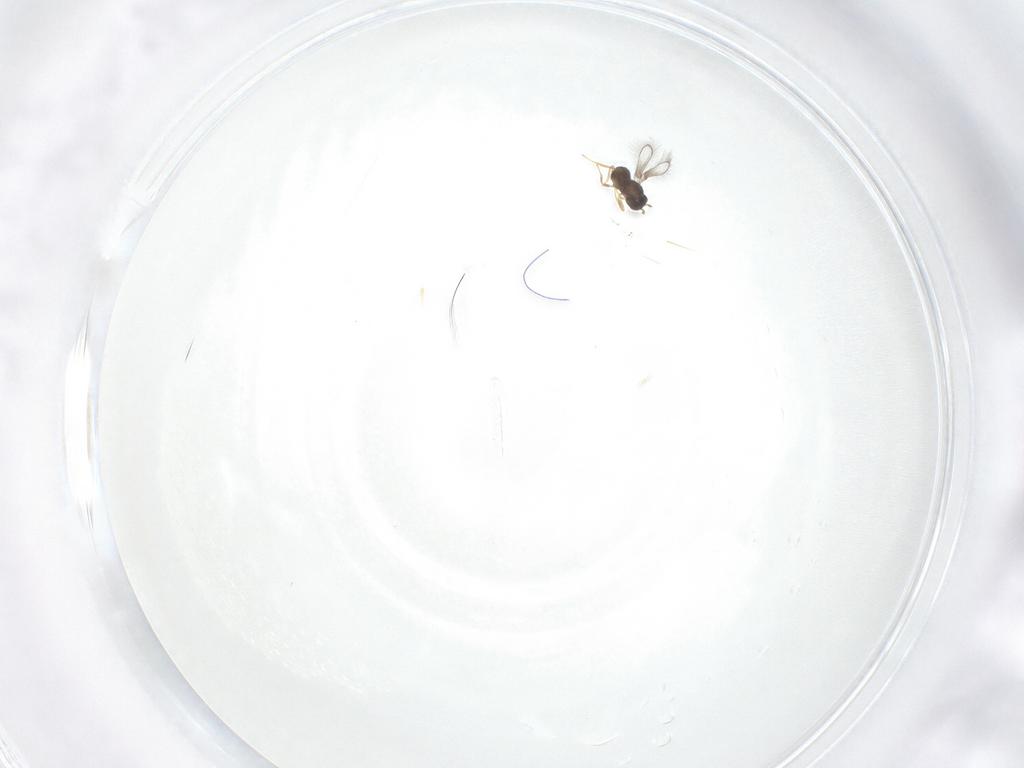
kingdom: Animalia
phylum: Arthropoda
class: Insecta
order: Hymenoptera
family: Mymaridae
